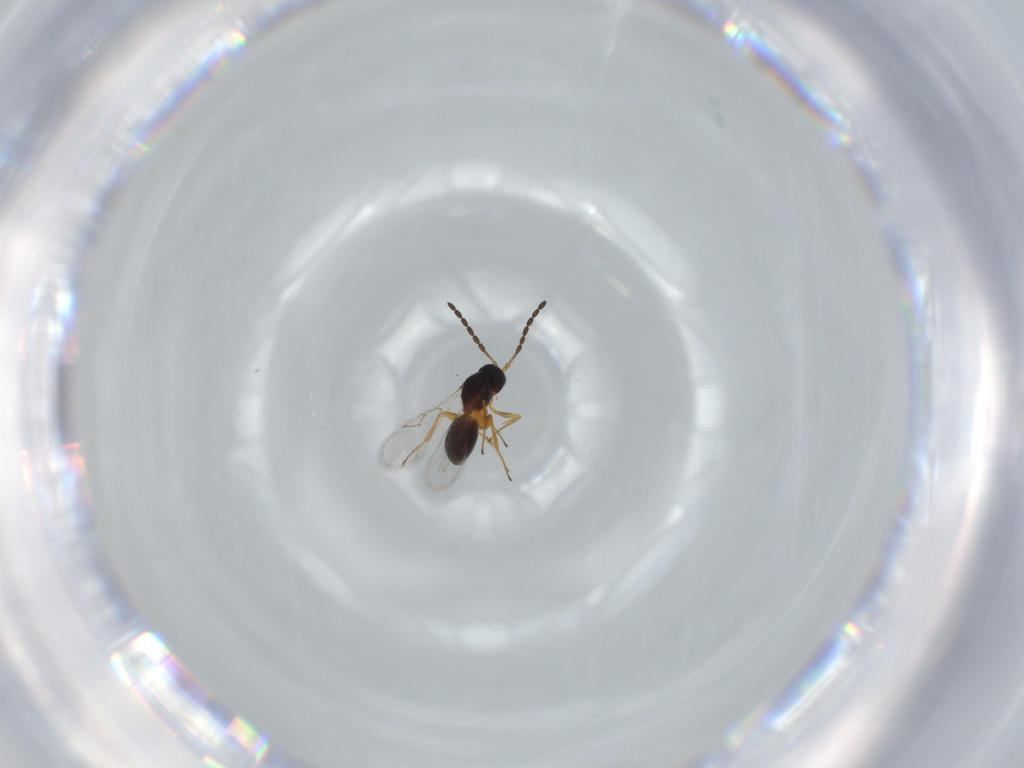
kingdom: Animalia
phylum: Arthropoda
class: Insecta
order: Hymenoptera
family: Figitidae
